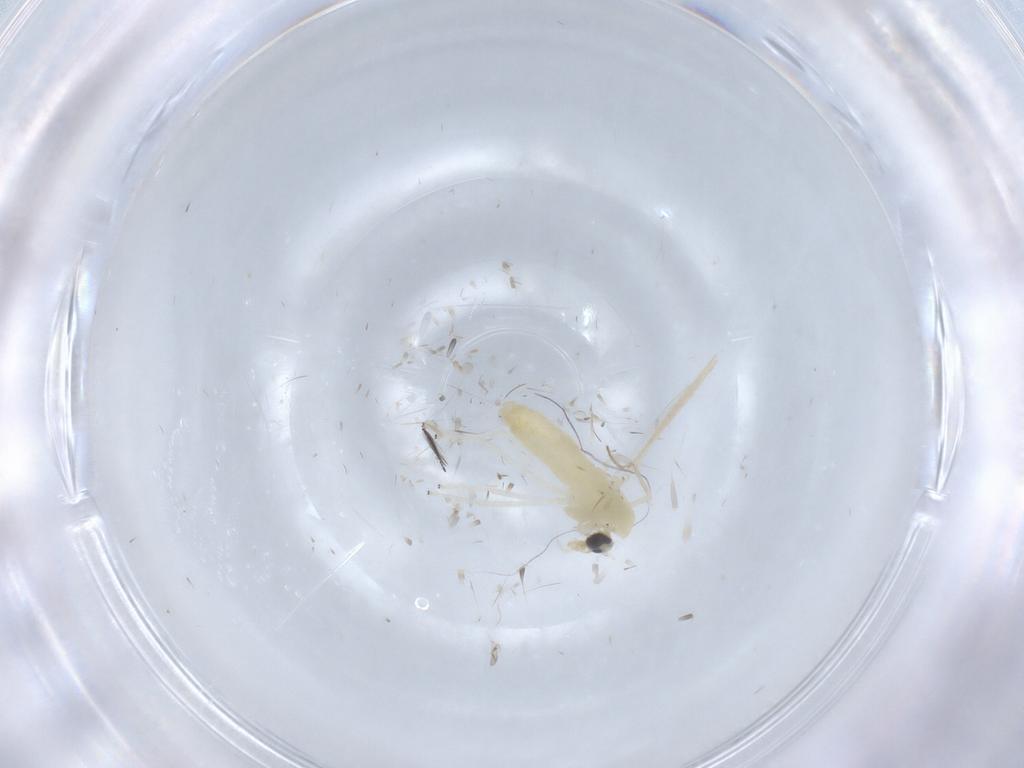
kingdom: Animalia
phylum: Arthropoda
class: Insecta
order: Diptera
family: Chironomidae
